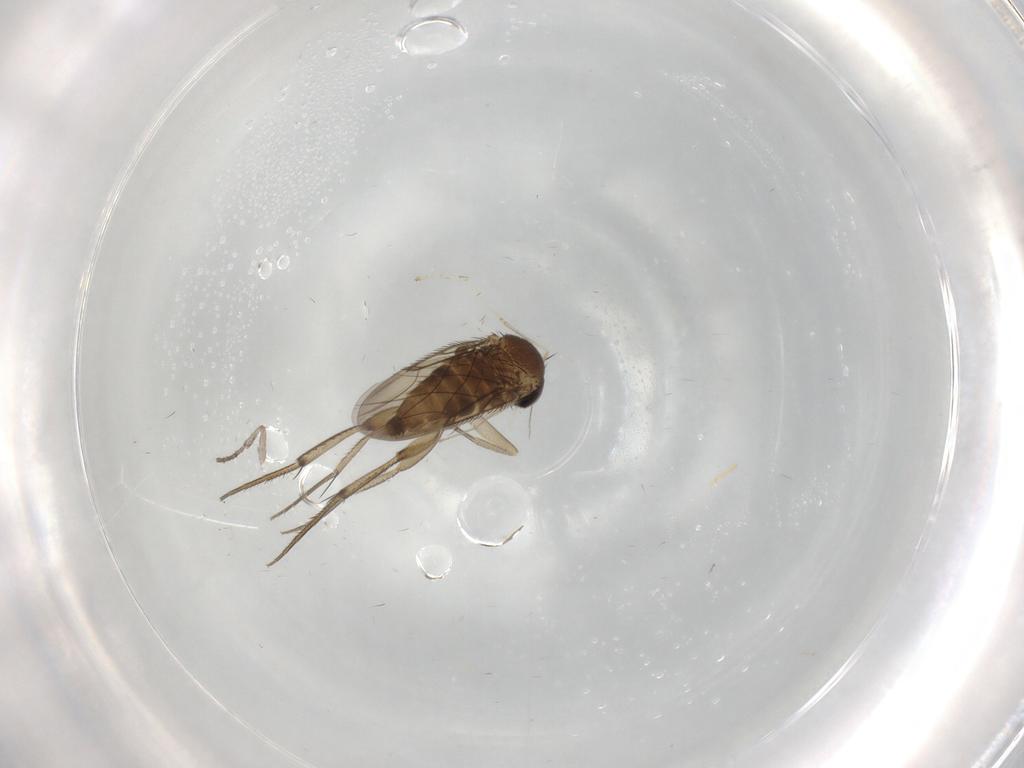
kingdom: Animalia
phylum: Arthropoda
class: Insecta
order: Diptera
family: Phoridae
